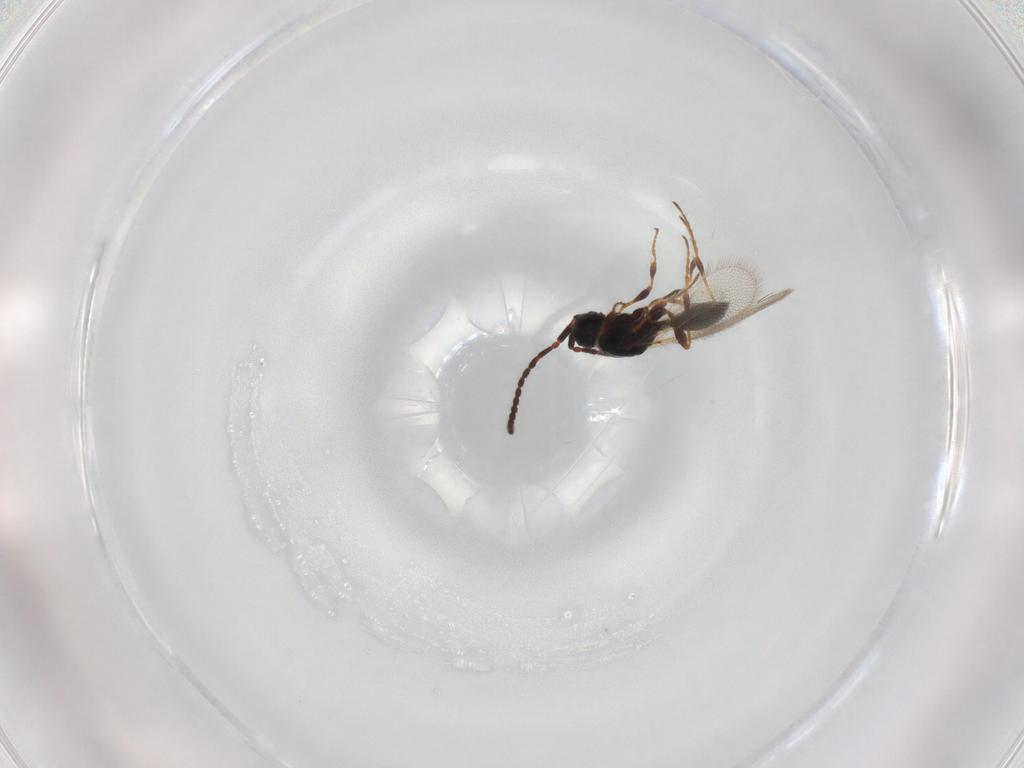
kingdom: Animalia
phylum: Arthropoda
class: Insecta
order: Hymenoptera
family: Diapriidae
